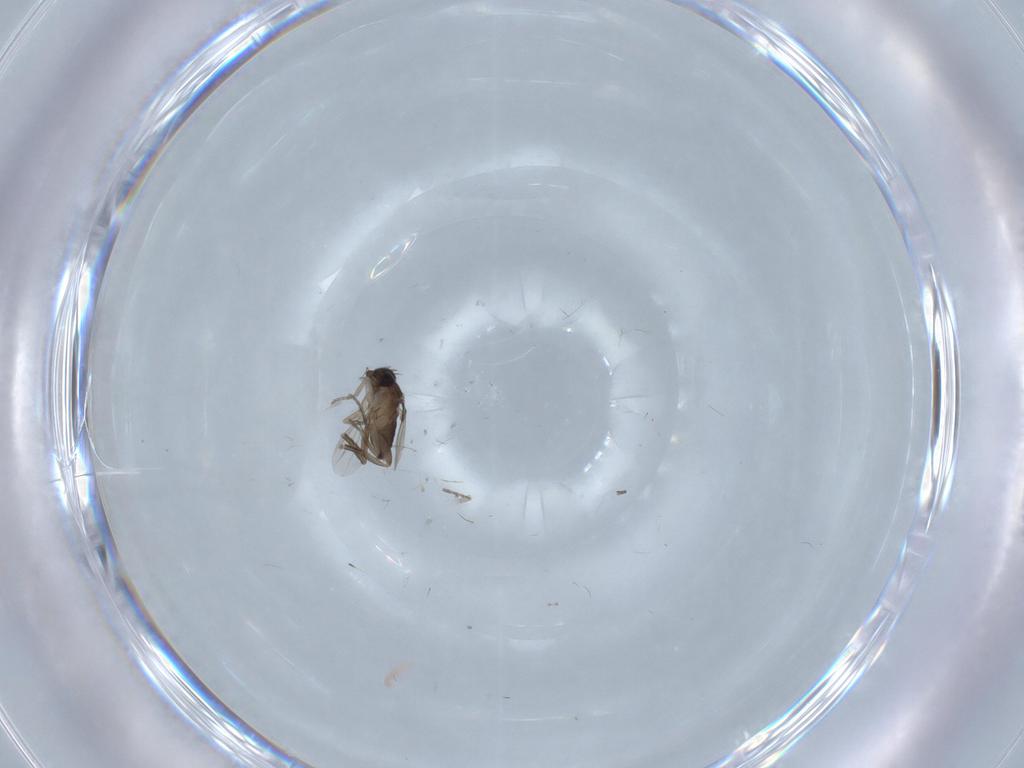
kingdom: Animalia
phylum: Arthropoda
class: Insecta
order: Diptera
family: Phoridae
